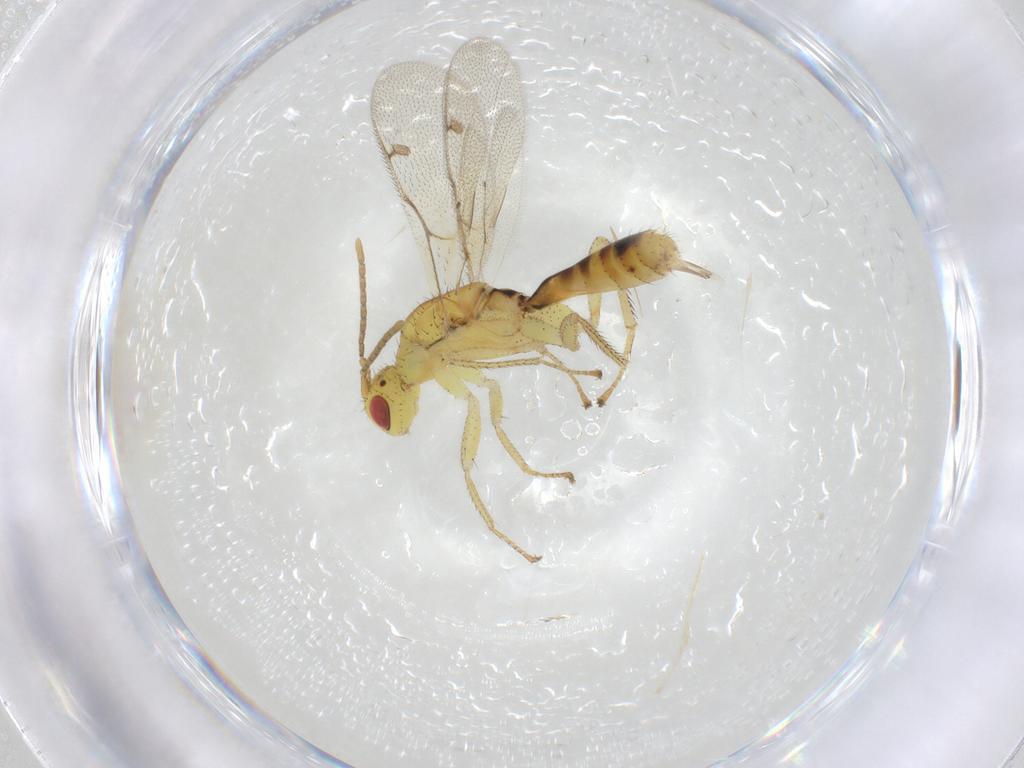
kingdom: Animalia
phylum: Arthropoda
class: Insecta
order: Hymenoptera
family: Megastigmidae
